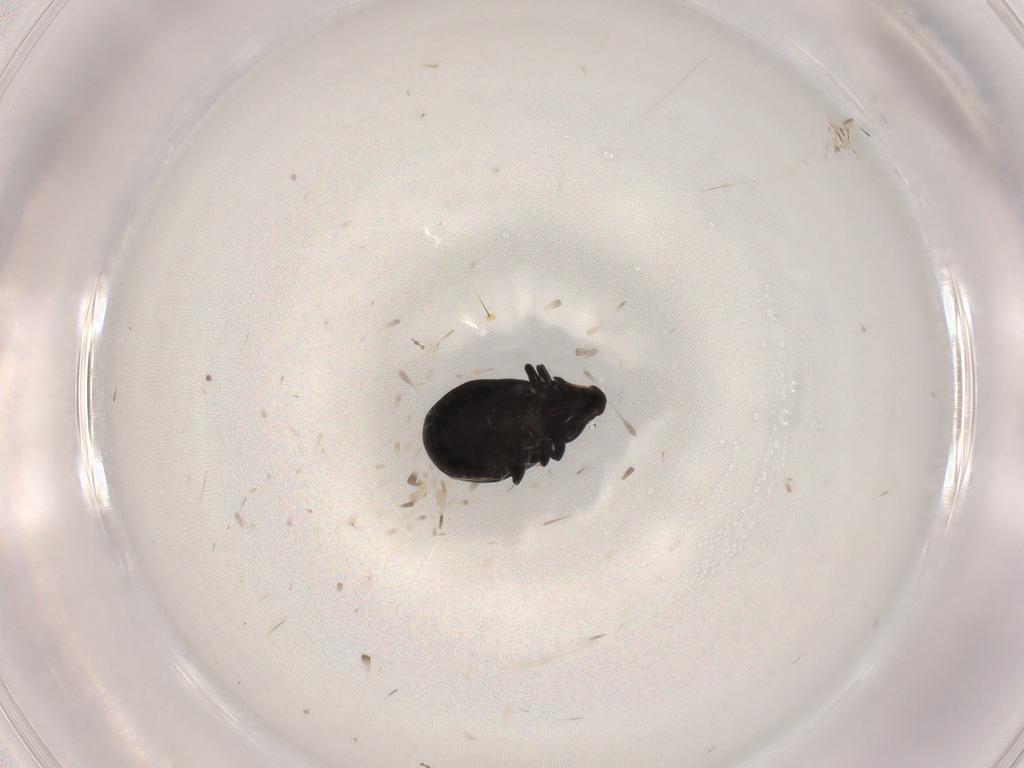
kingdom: Animalia
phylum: Arthropoda
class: Insecta
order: Coleoptera
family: Curculionidae
